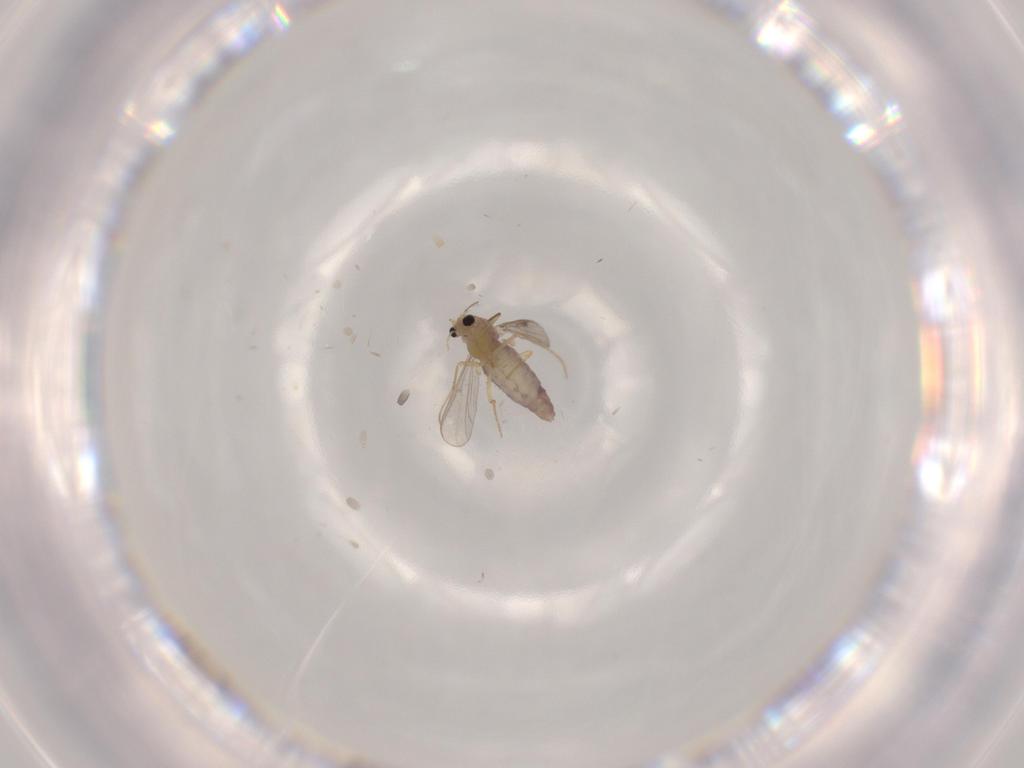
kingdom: Animalia
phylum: Arthropoda
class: Insecta
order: Diptera
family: Chironomidae
